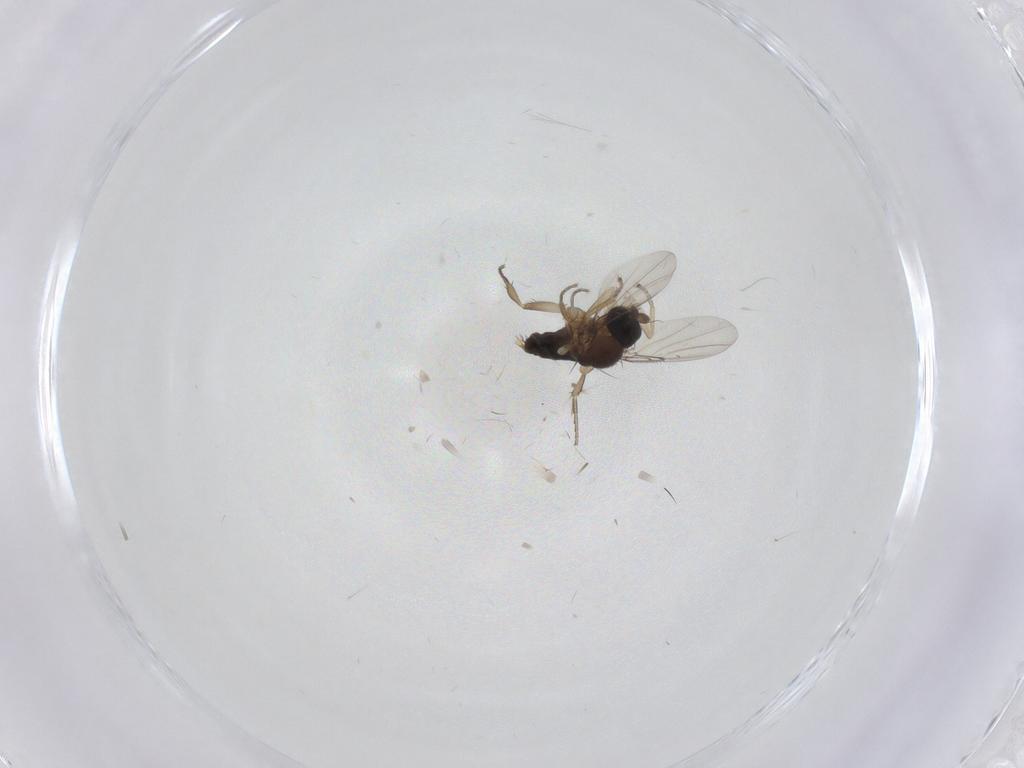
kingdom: Animalia
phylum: Arthropoda
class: Insecta
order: Diptera
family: Phoridae
